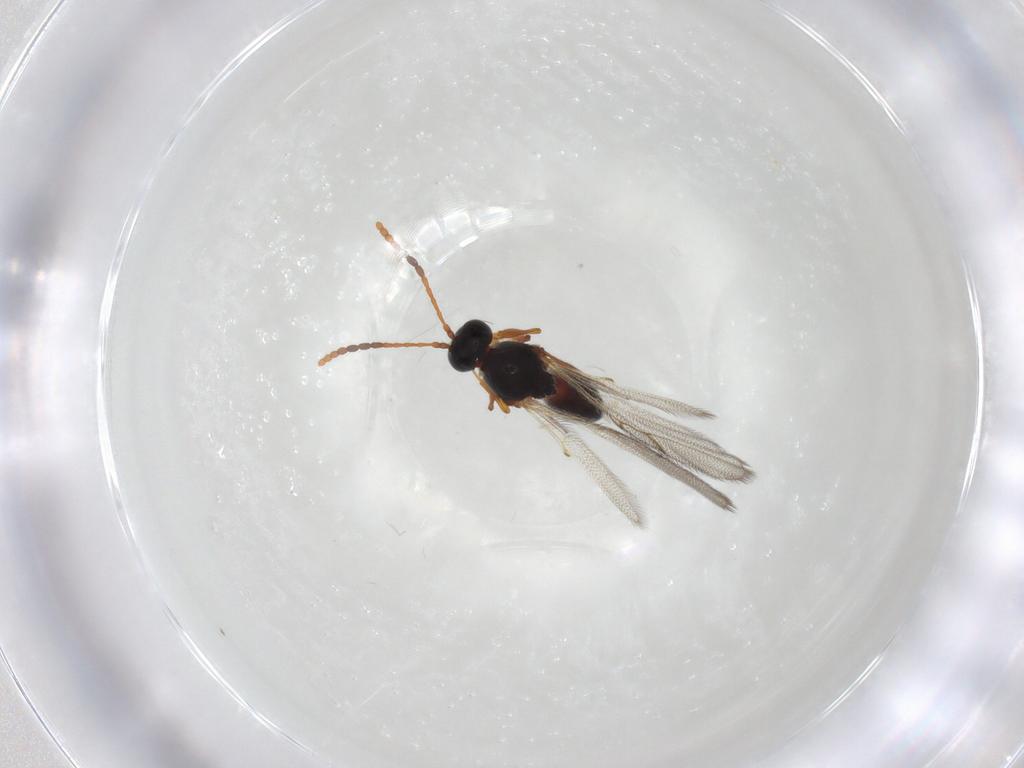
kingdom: Animalia
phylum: Arthropoda
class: Insecta
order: Hymenoptera
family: Figitidae
